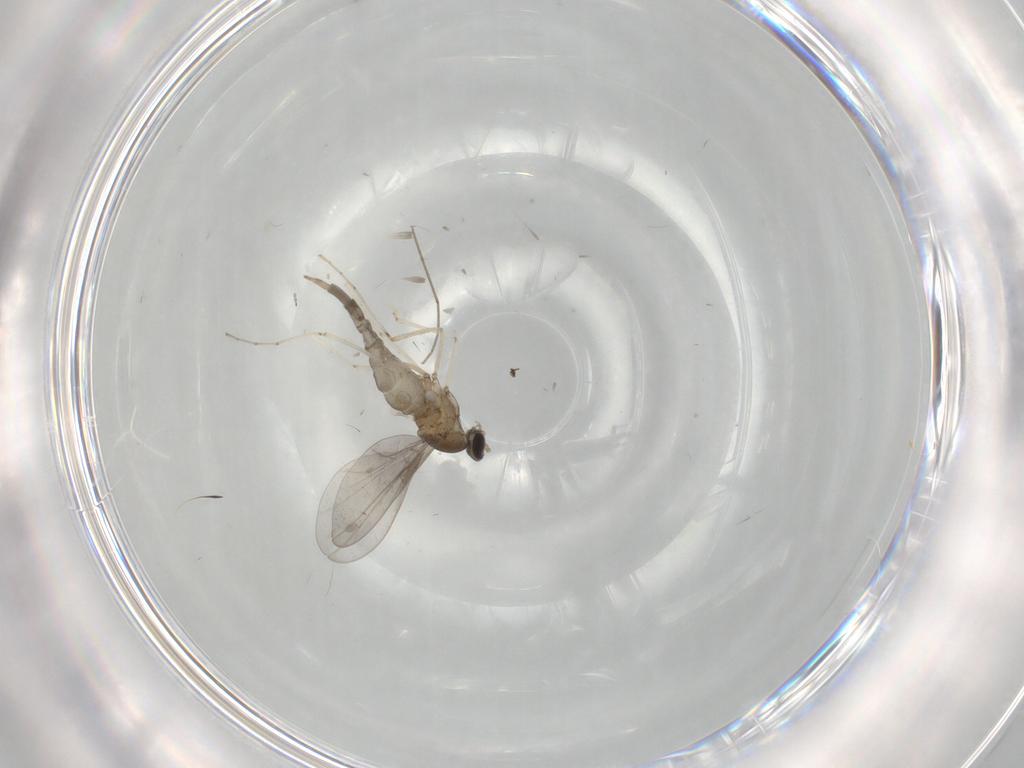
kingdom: Animalia
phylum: Arthropoda
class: Insecta
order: Diptera
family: Cecidomyiidae
